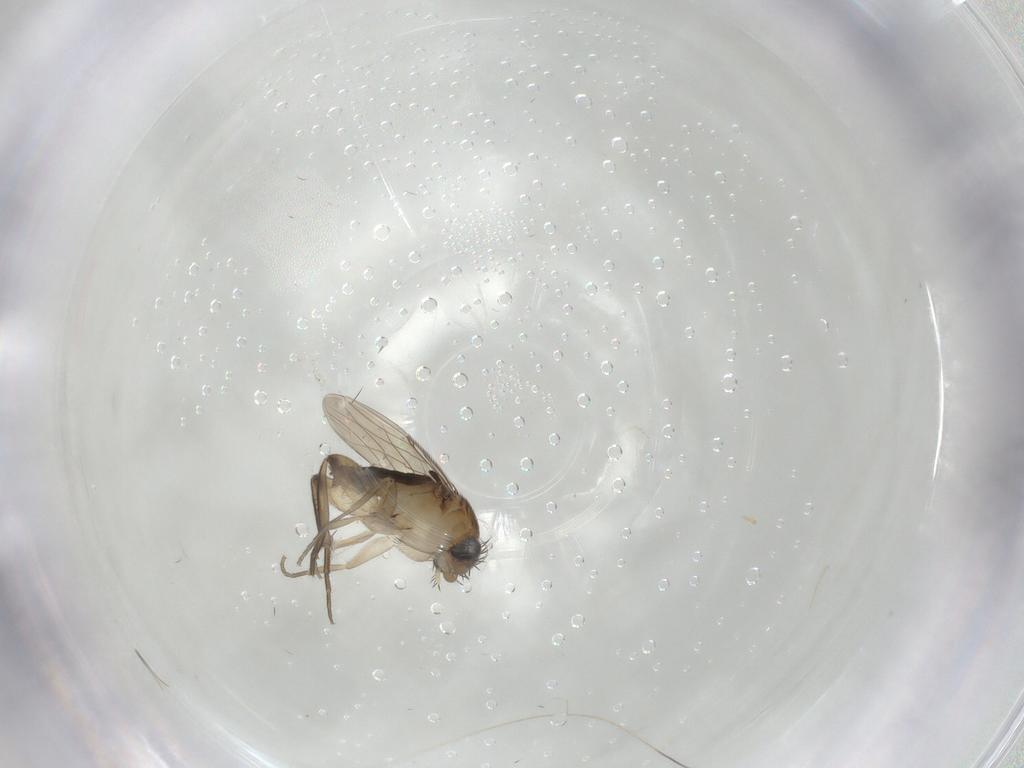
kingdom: Animalia
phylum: Arthropoda
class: Insecta
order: Diptera
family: Phoridae
